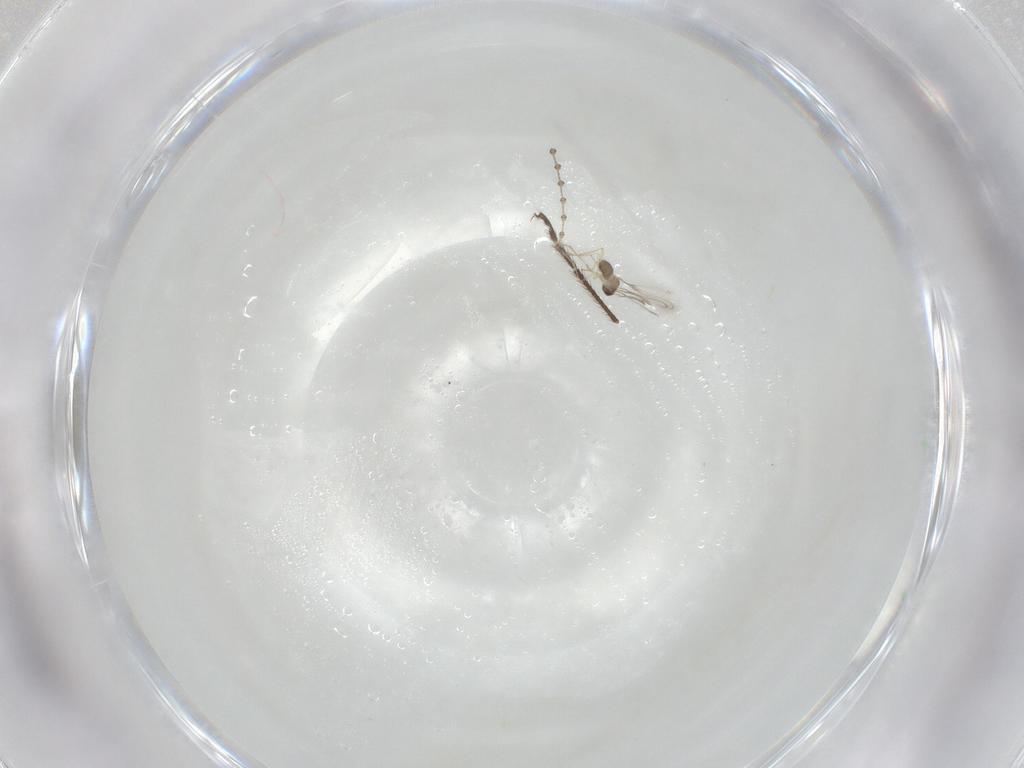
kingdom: Animalia
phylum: Arthropoda
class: Insecta
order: Diptera
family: Limoniidae
